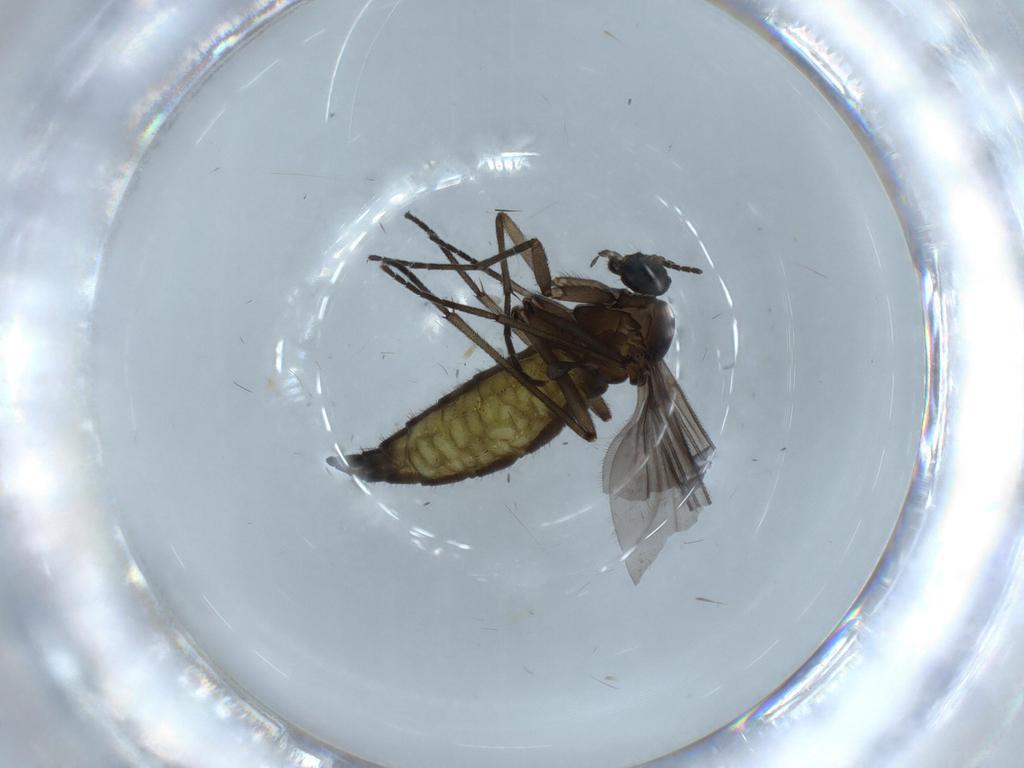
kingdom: Animalia
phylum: Arthropoda
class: Insecta
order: Diptera
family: Sciaridae
